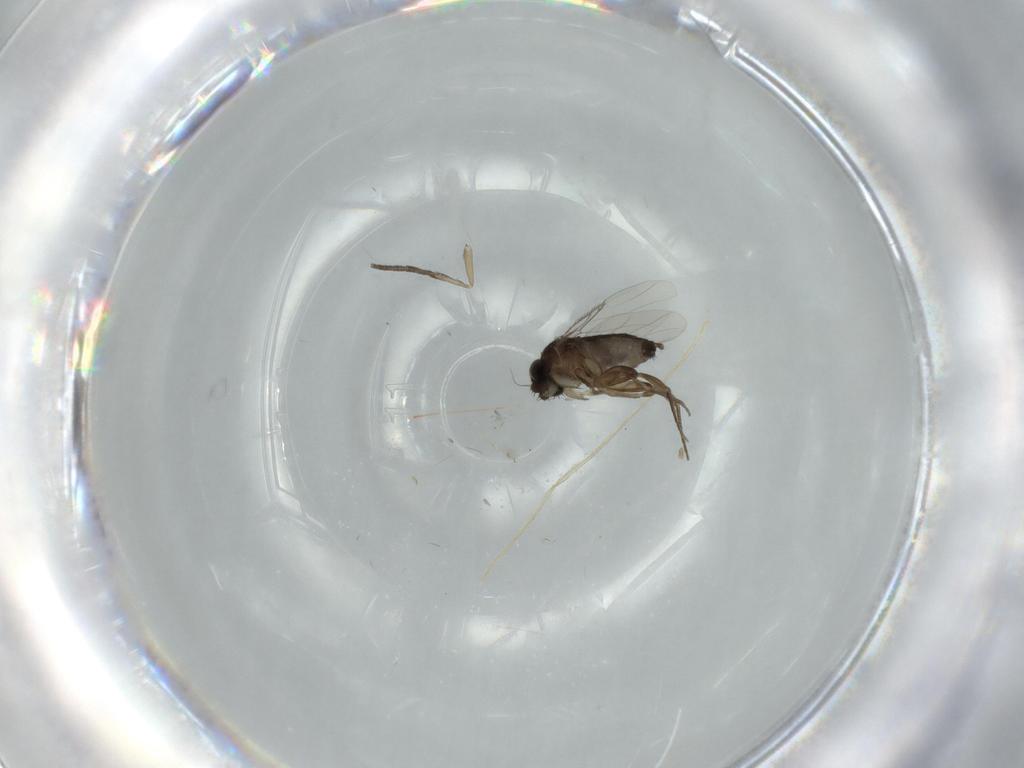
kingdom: Animalia
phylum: Arthropoda
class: Insecta
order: Diptera
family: Phoridae
